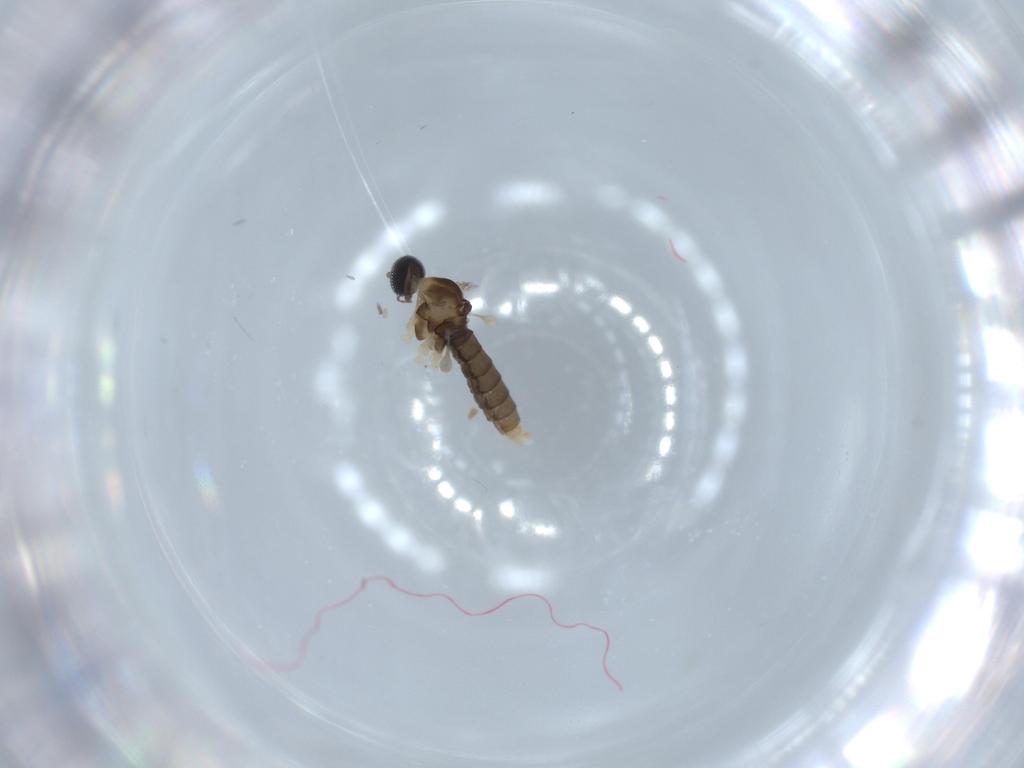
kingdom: Animalia
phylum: Arthropoda
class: Insecta
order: Diptera
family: Cecidomyiidae
